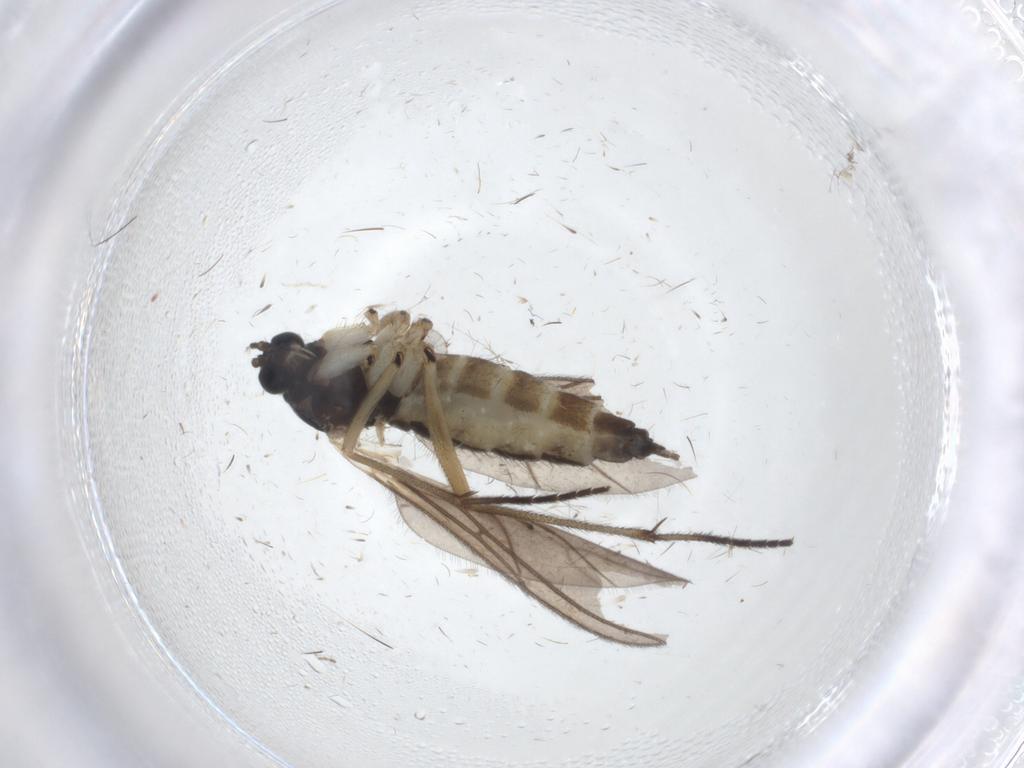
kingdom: Animalia
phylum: Arthropoda
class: Insecta
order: Diptera
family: Sciaridae
